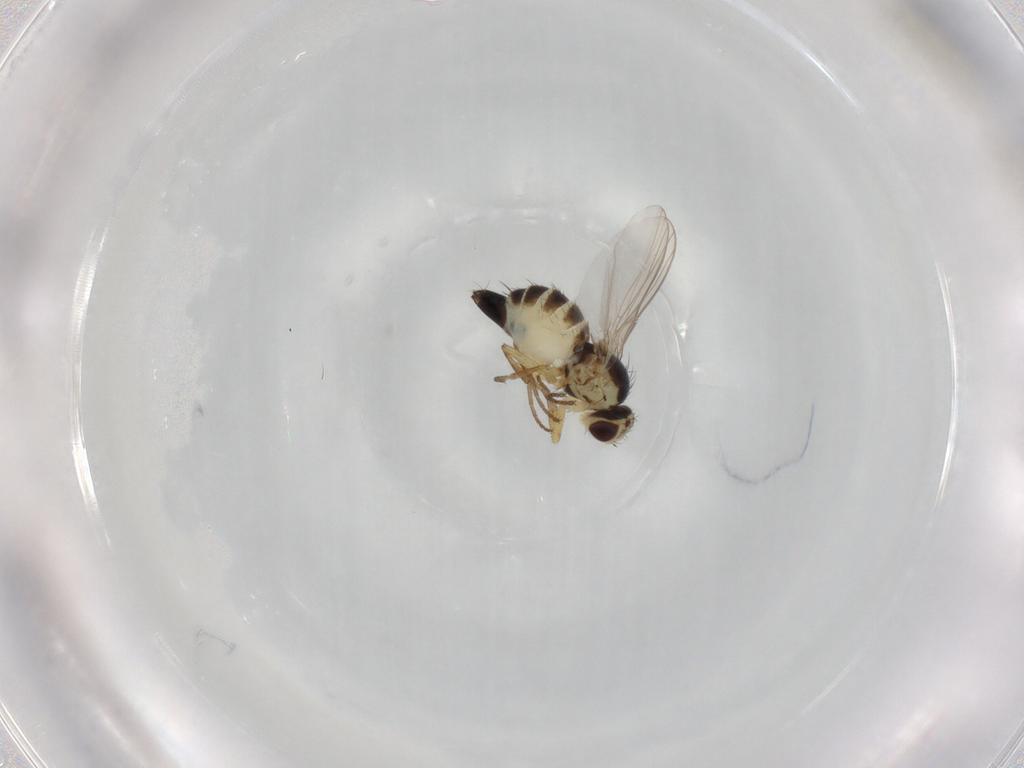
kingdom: Animalia
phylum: Arthropoda
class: Insecta
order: Diptera
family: Agromyzidae
